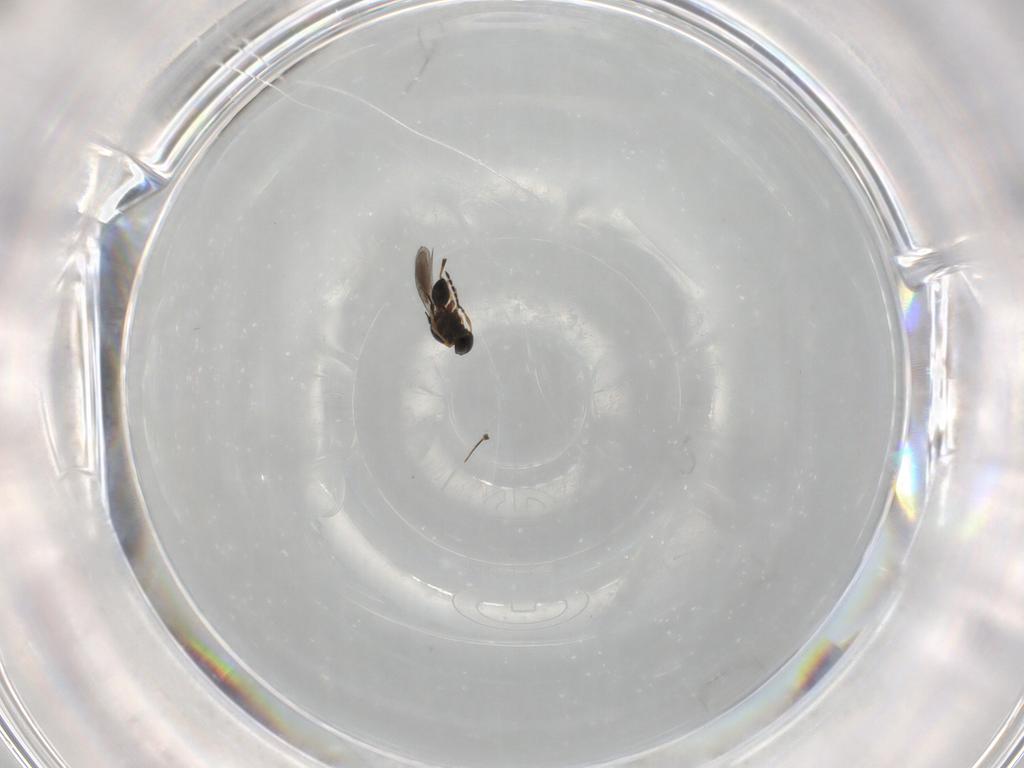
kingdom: Animalia
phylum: Arthropoda
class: Insecta
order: Hymenoptera
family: Platygastridae
